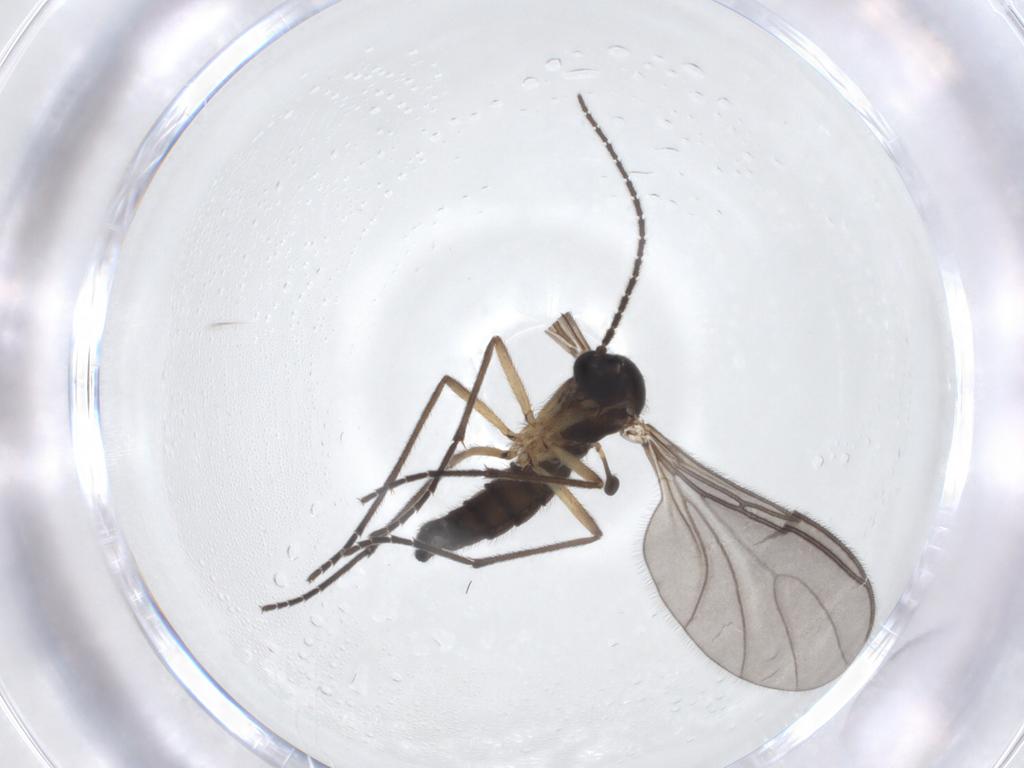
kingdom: Animalia
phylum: Arthropoda
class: Insecta
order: Diptera
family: Sciaridae
